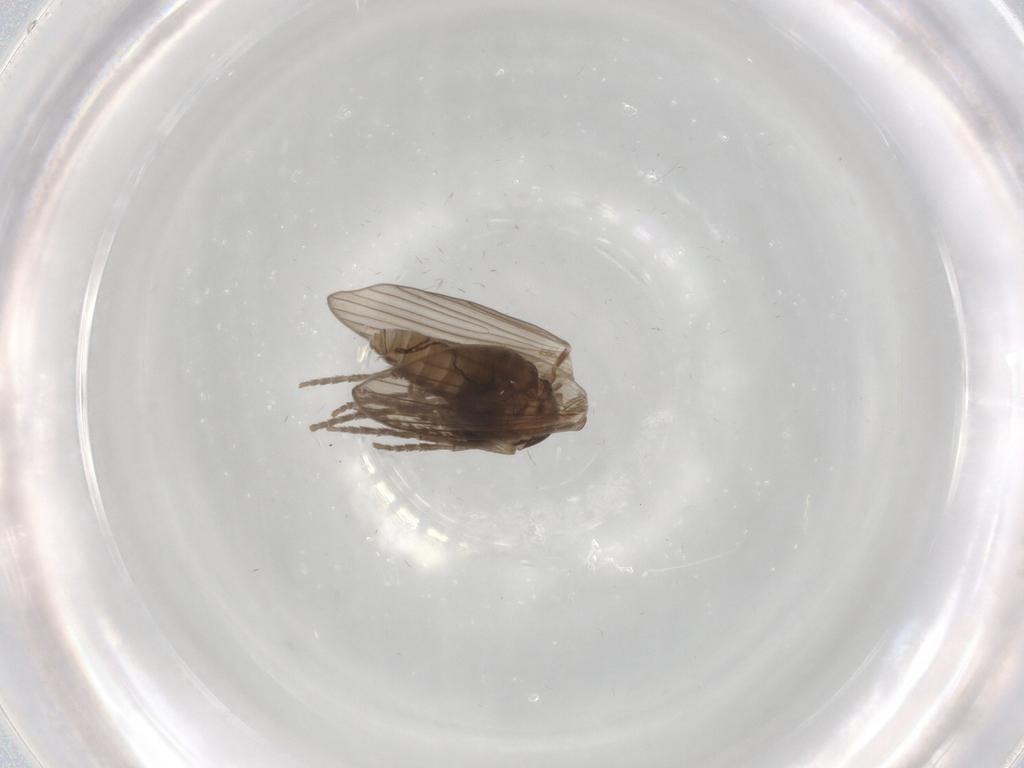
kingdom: Animalia
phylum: Arthropoda
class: Insecta
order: Diptera
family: Psychodidae
